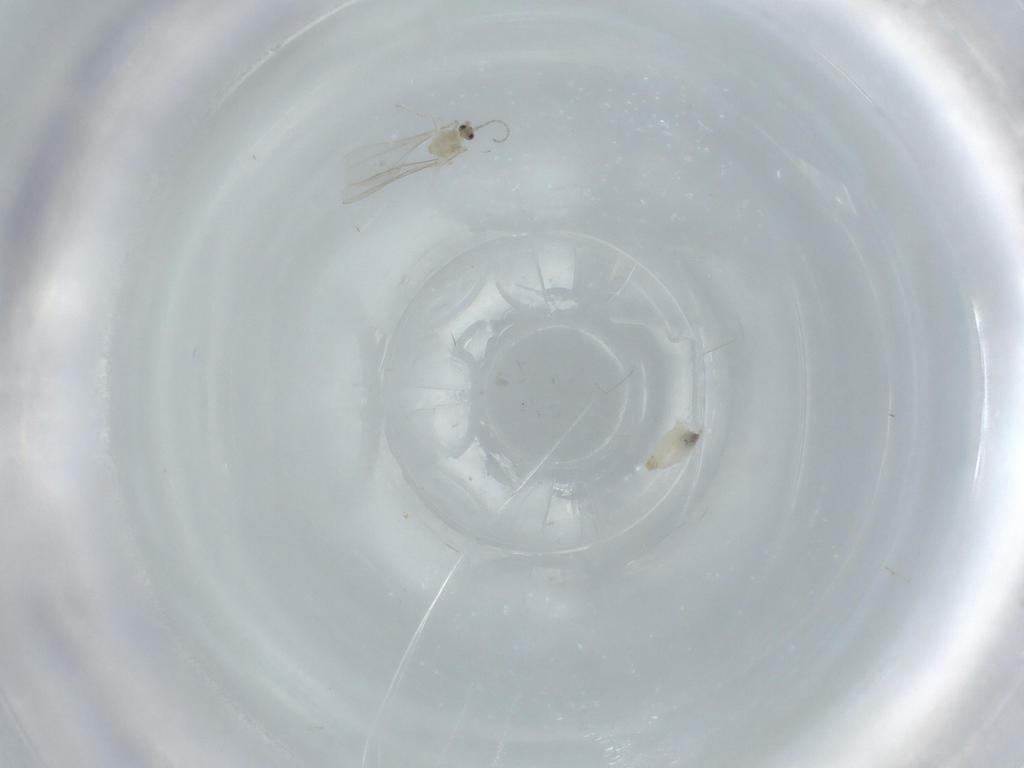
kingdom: Animalia
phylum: Arthropoda
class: Insecta
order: Diptera
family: Cecidomyiidae
